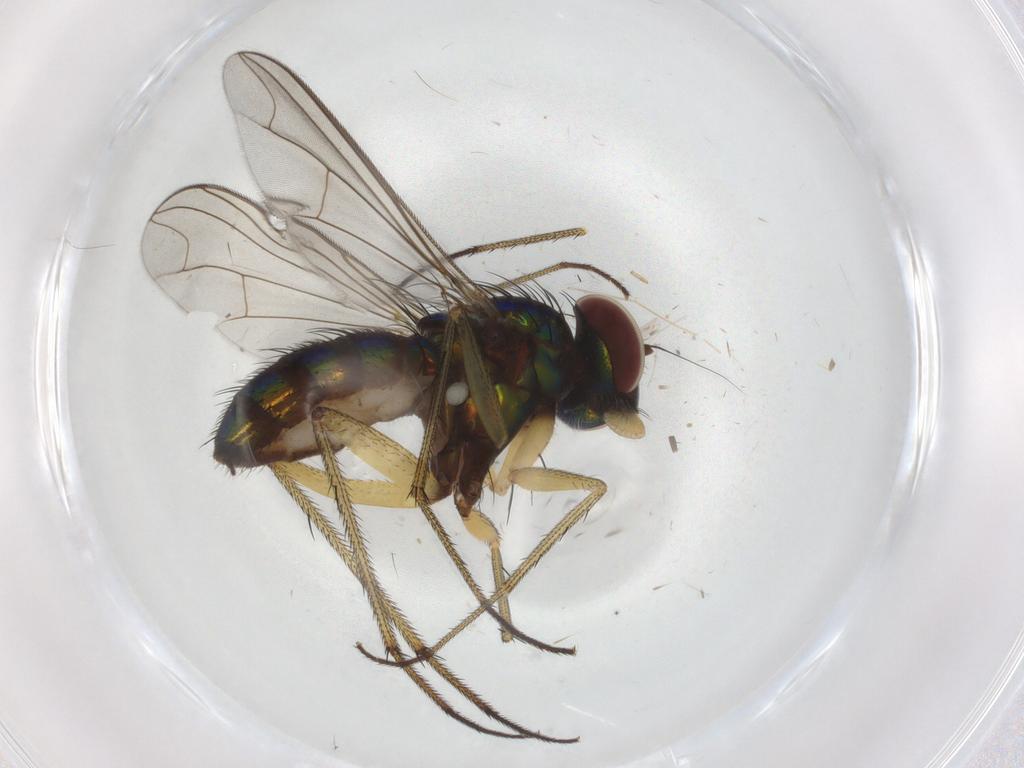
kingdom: Animalia
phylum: Arthropoda
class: Insecta
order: Diptera
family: Dolichopodidae
